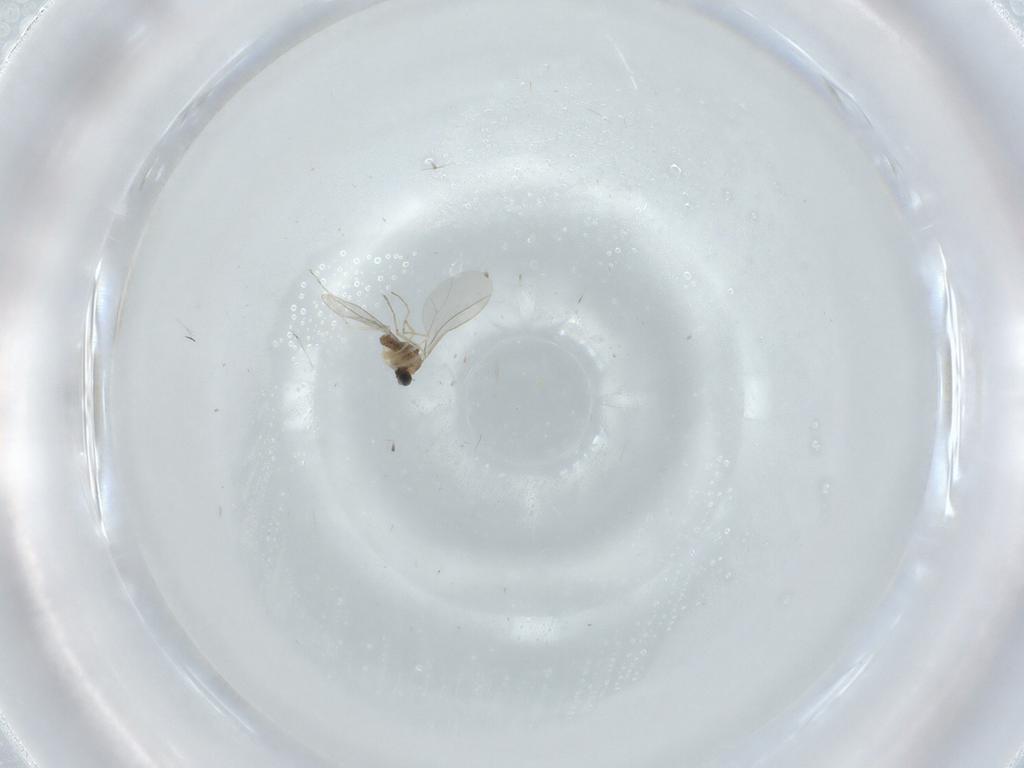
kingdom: Animalia
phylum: Arthropoda
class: Insecta
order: Diptera
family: Cecidomyiidae
